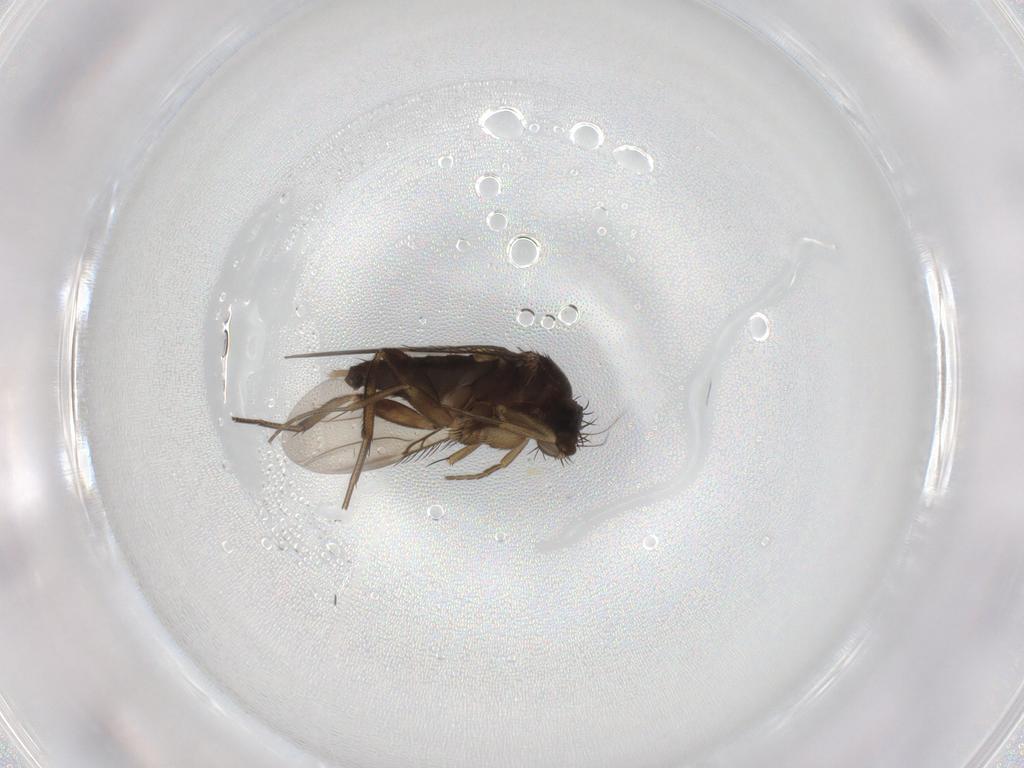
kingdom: Animalia
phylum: Arthropoda
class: Insecta
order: Diptera
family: Phoridae
